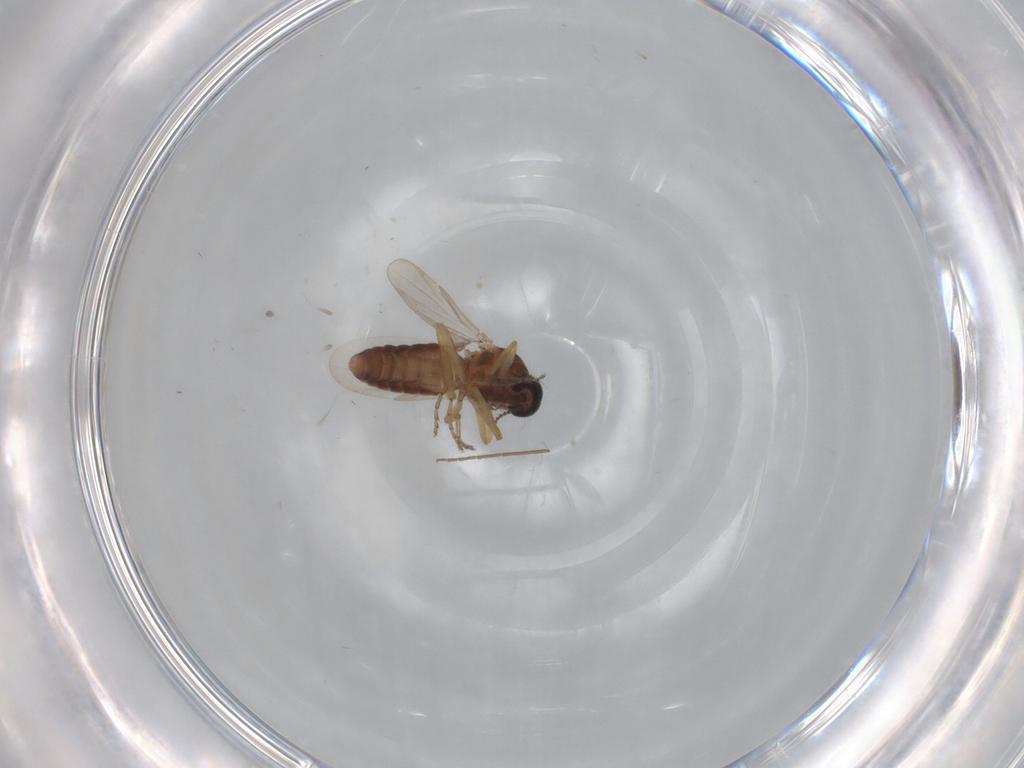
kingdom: Animalia
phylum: Arthropoda
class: Insecta
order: Diptera
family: Ceratopogonidae
